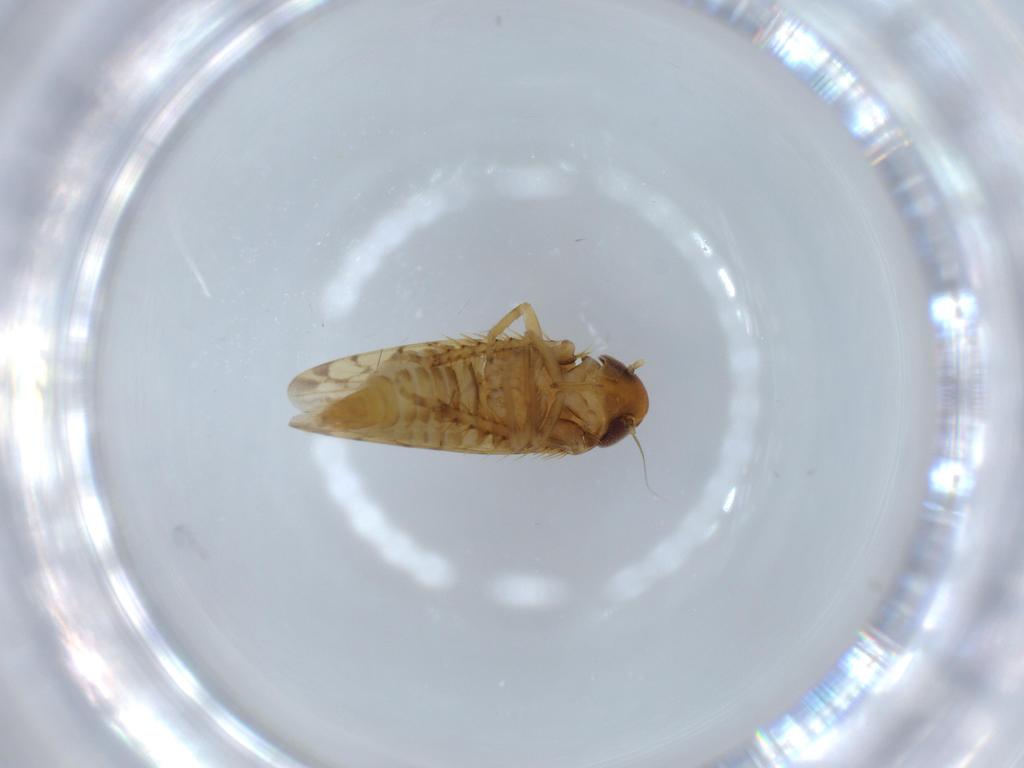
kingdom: Animalia
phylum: Arthropoda
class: Insecta
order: Hemiptera
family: Cicadellidae
